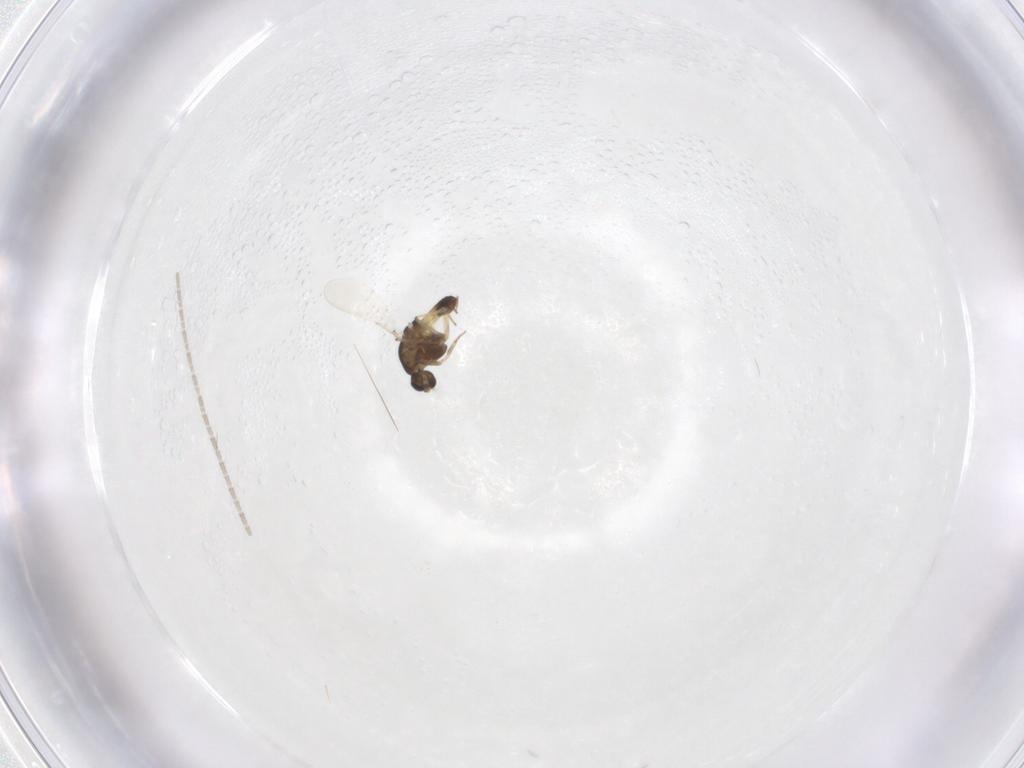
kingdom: Animalia
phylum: Arthropoda
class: Insecta
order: Diptera
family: Chironomidae
